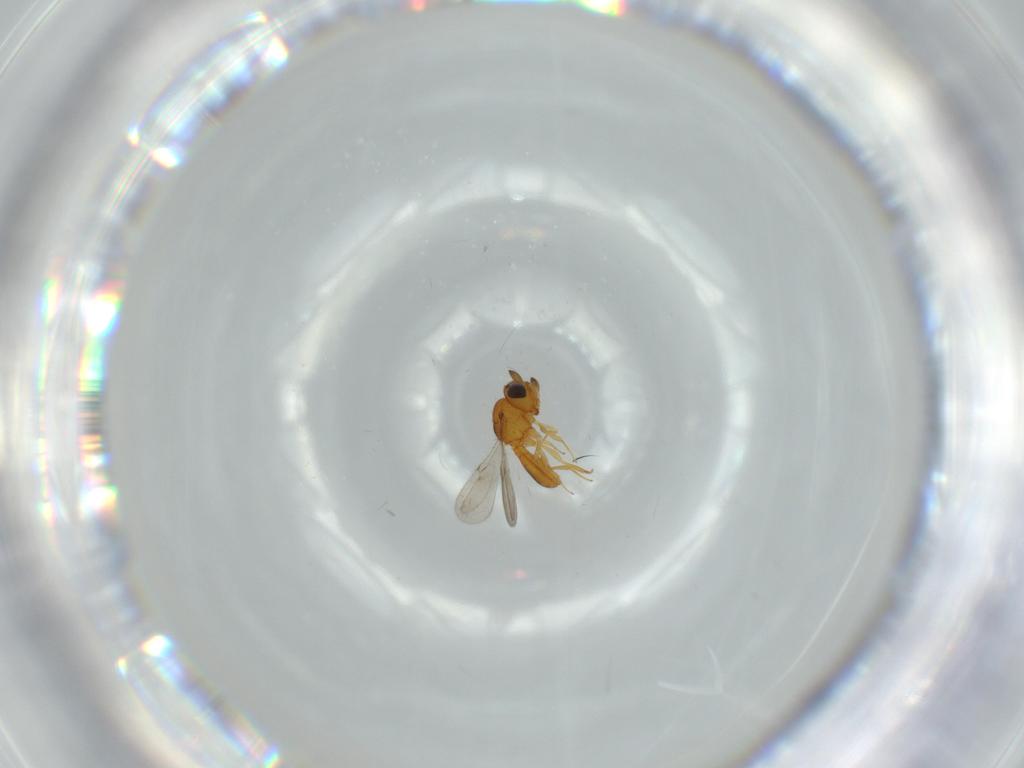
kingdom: Animalia
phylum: Arthropoda
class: Insecta
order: Hymenoptera
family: Scelionidae
